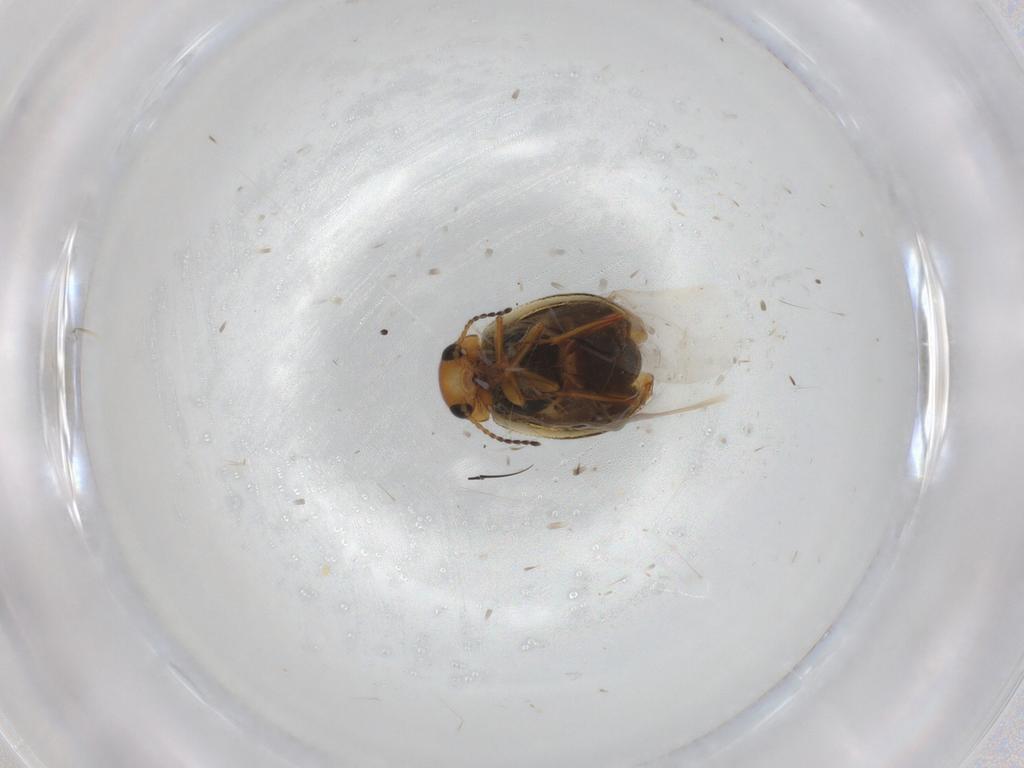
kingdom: Animalia
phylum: Arthropoda
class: Insecta
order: Coleoptera
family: Melyridae
